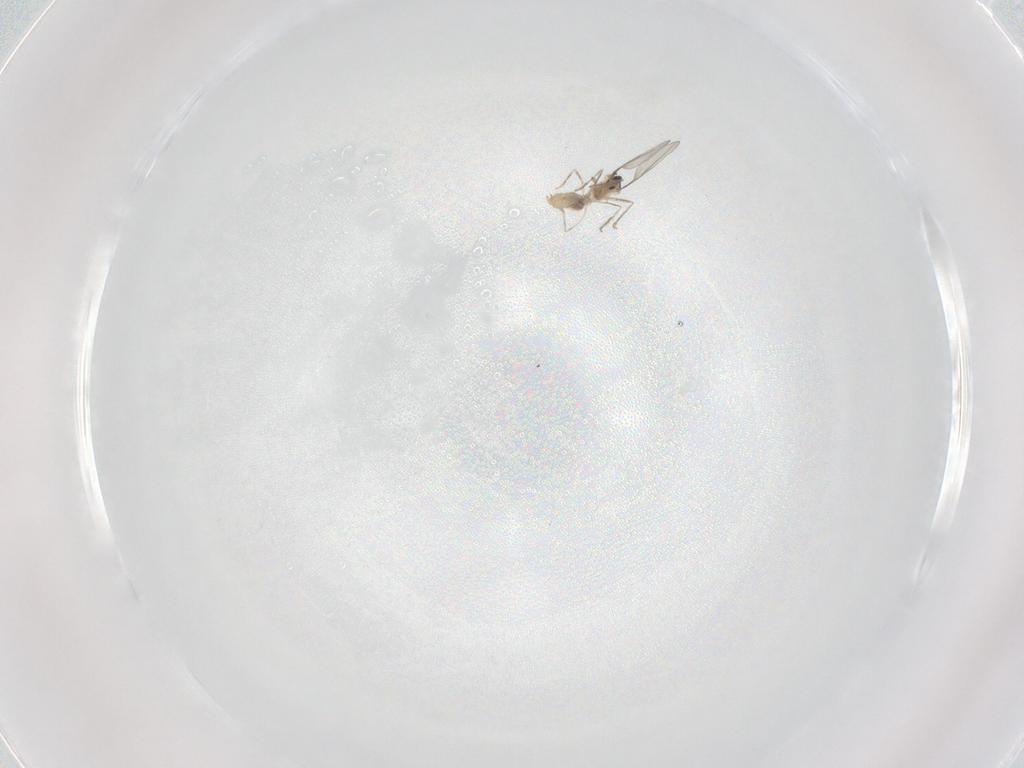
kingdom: Animalia
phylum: Arthropoda
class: Insecta
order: Diptera
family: Cecidomyiidae
